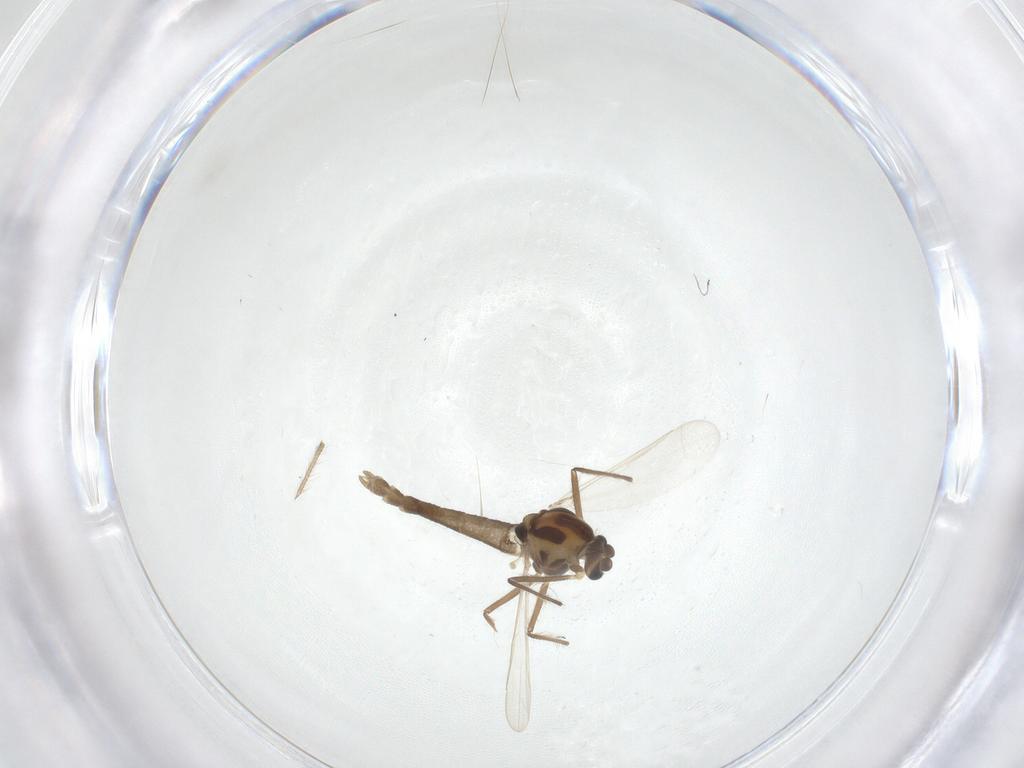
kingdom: Animalia
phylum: Arthropoda
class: Insecta
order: Diptera
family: Chironomidae
